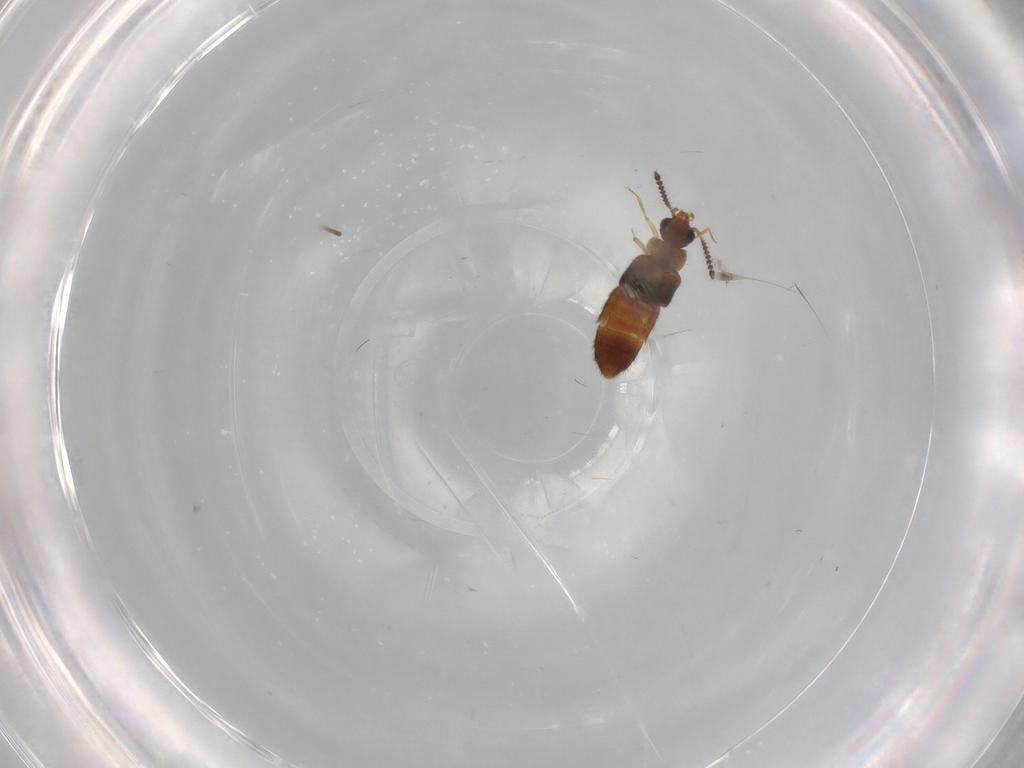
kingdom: Animalia
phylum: Arthropoda
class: Insecta
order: Coleoptera
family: Staphylinidae
